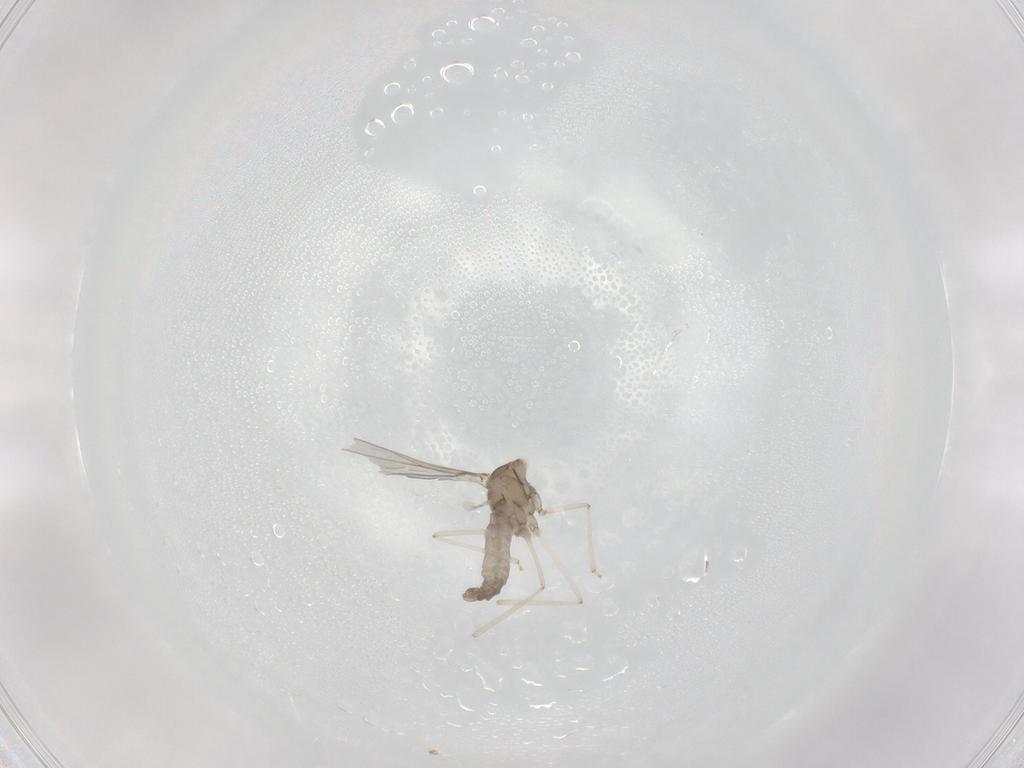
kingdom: Animalia
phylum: Arthropoda
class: Insecta
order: Diptera
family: Cecidomyiidae
